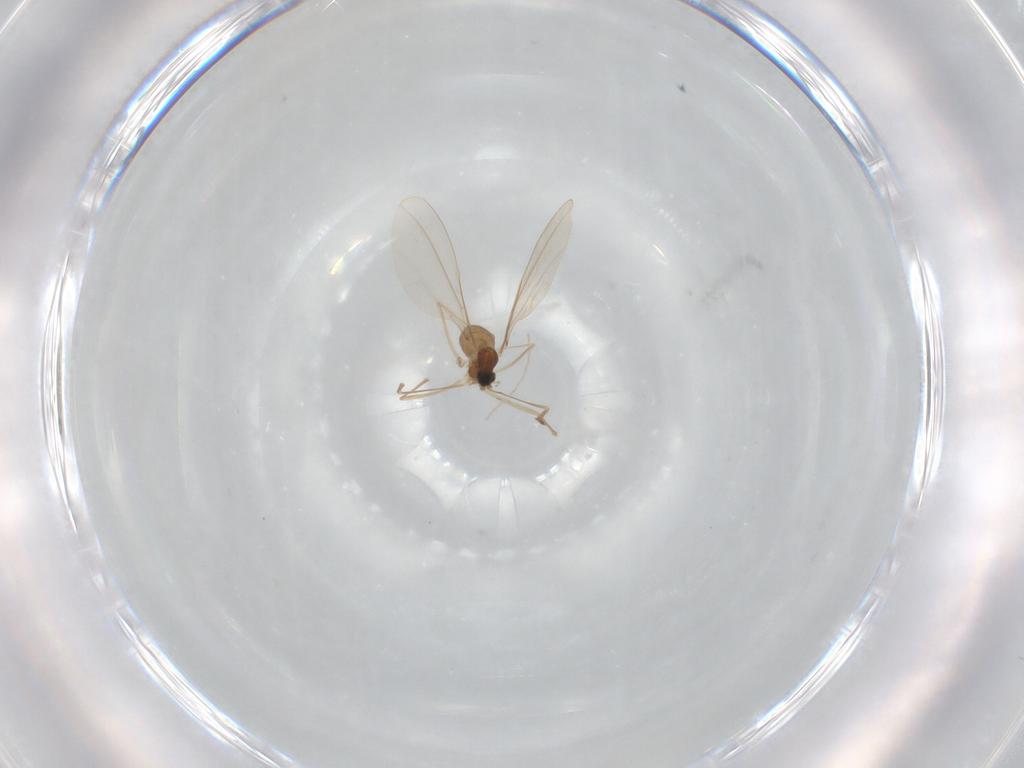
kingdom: Animalia
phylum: Arthropoda
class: Insecta
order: Diptera
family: Cecidomyiidae
